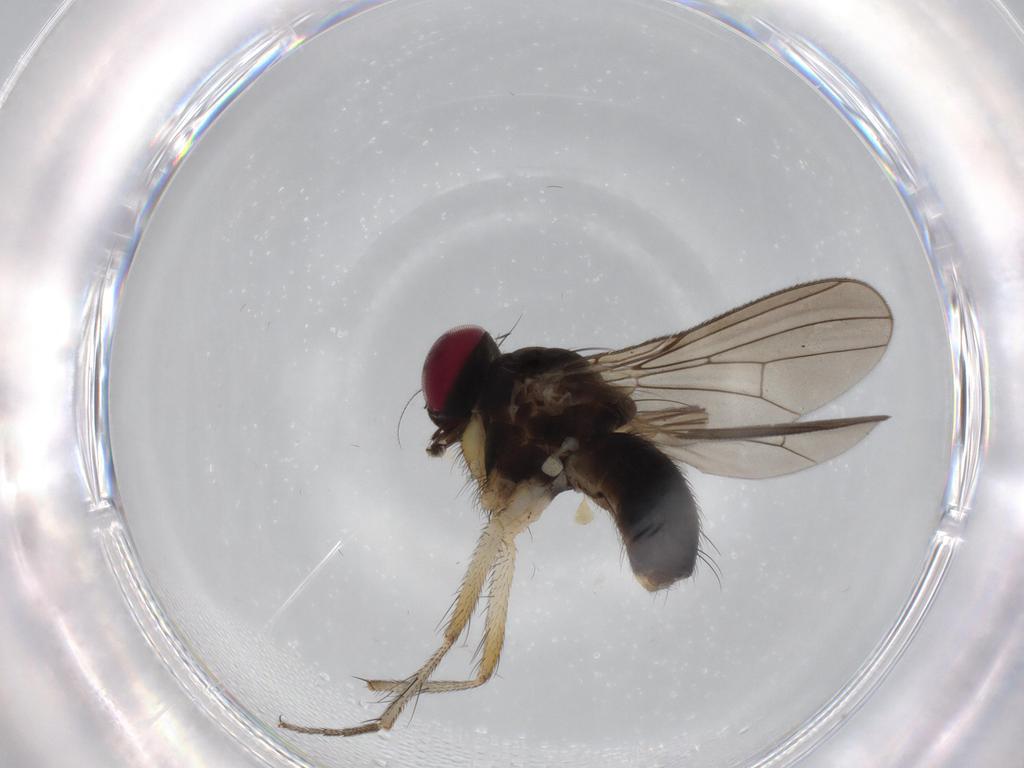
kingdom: Animalia
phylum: Arthropoda
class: Insecta
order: Diptera
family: Anthomyiidae
